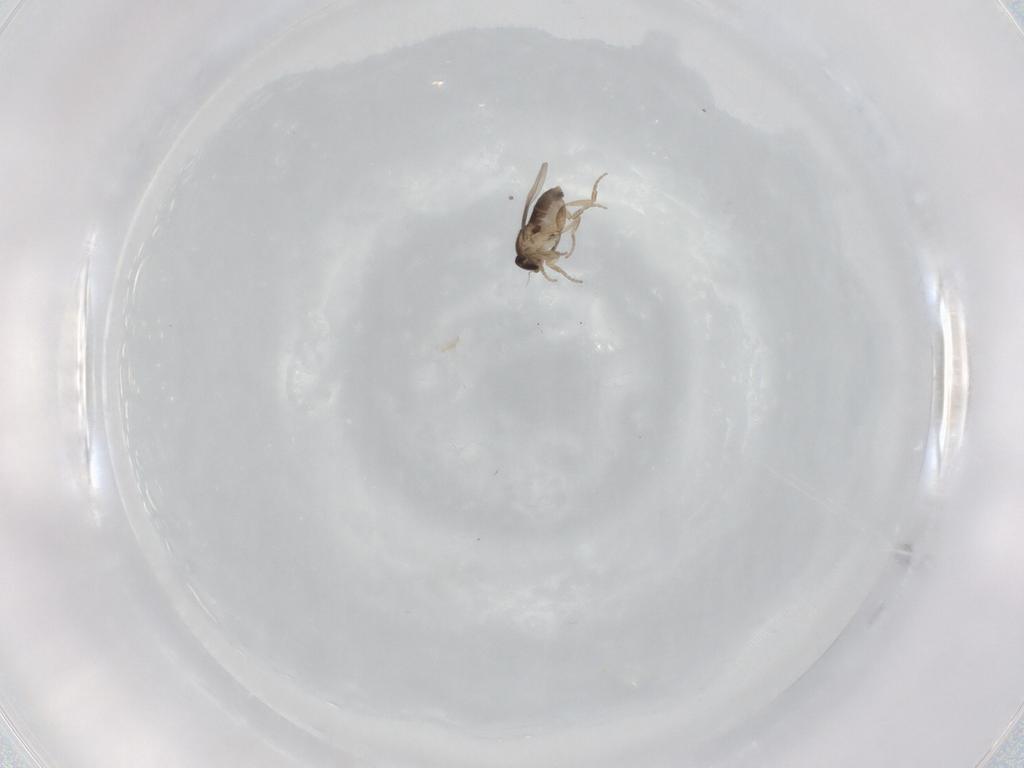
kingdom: Animalia
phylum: Arthropoda
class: Insecta
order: Diptera
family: Phoridae
